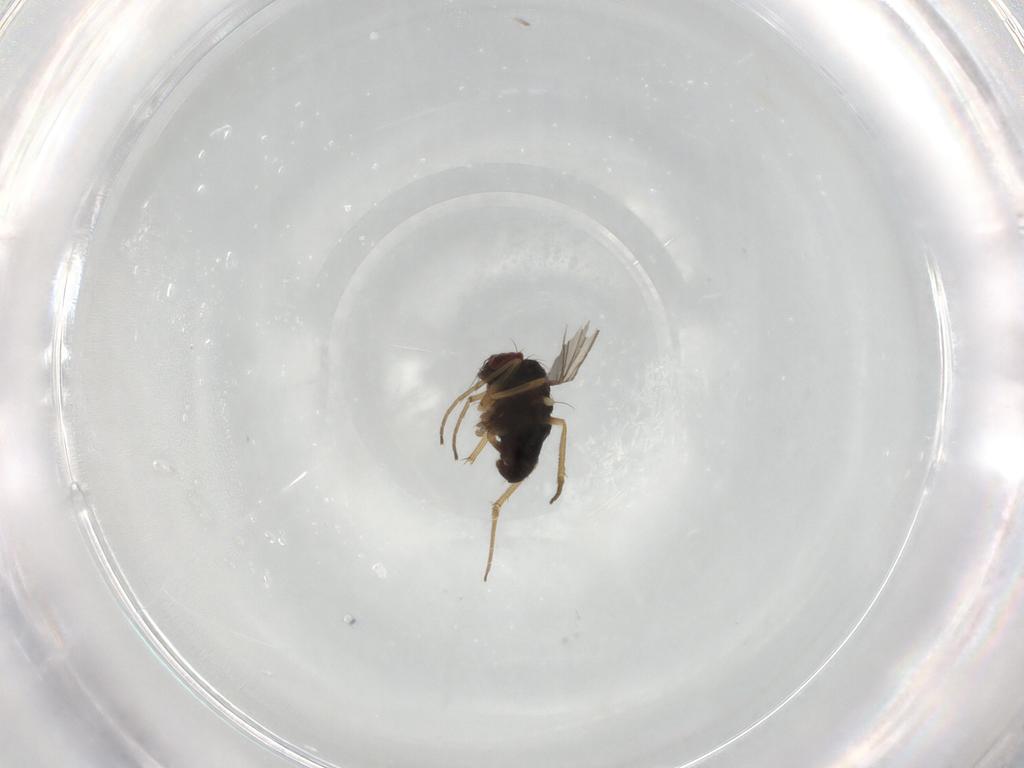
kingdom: Animalia
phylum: Arthropoda
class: Insecta
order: Diptera
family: Dolichopodidae
